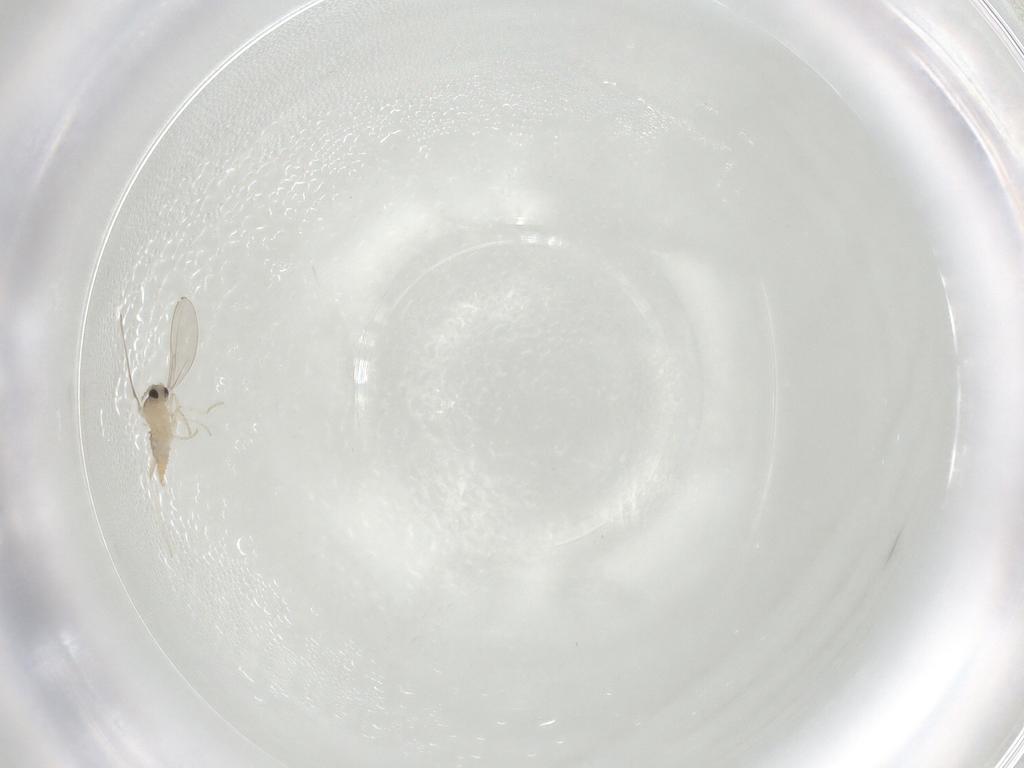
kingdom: Animalia
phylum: Arthropoda
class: Insecta
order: Diptera
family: Cecidomyiidae
